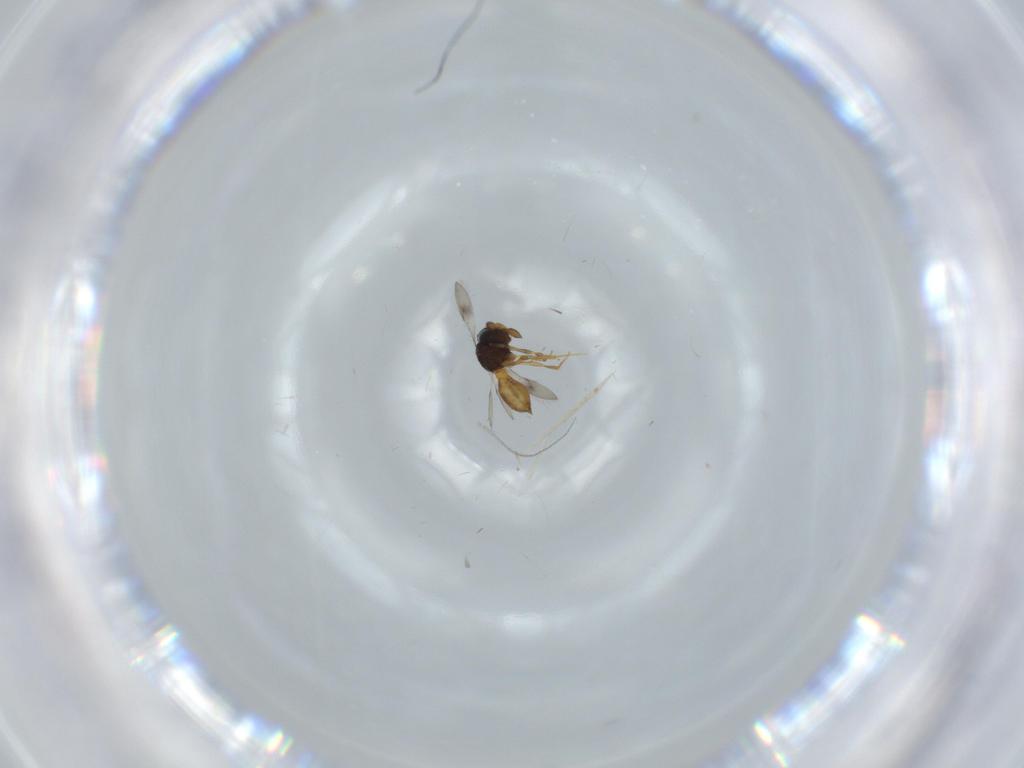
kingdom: Animalia
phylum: Arthropoda
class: Insecta
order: Hymenoptera
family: Scelionidae
